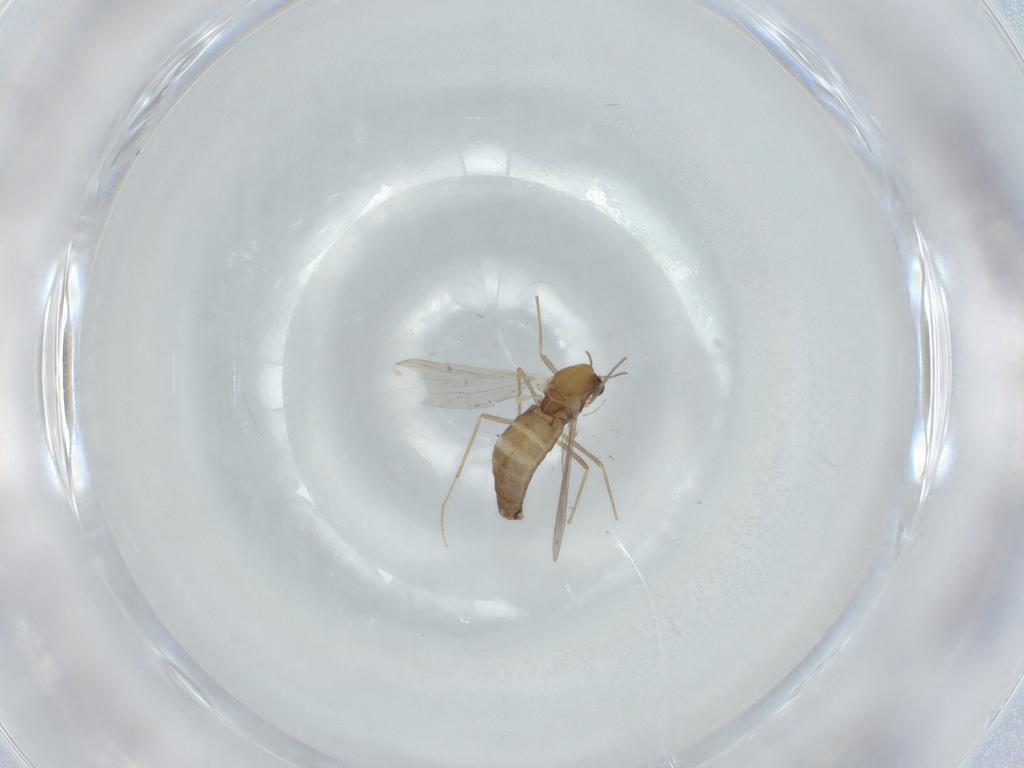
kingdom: Animalia
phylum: Arthropoda
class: Insecta
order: Diptera
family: Chironomidae
